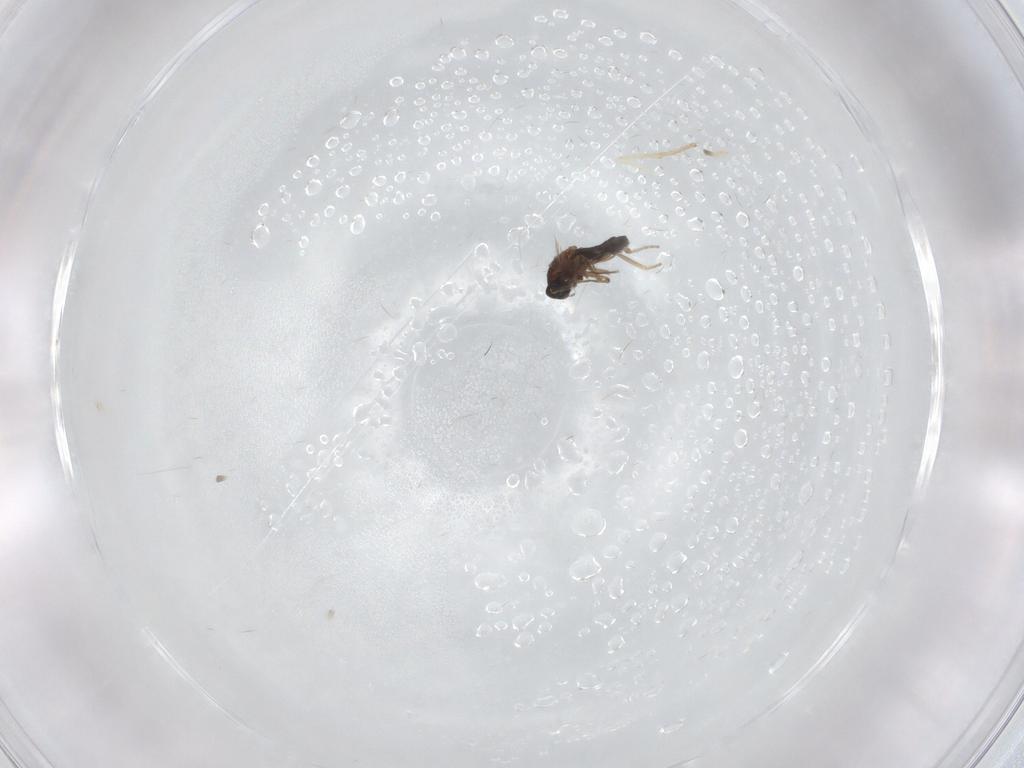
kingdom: Animalia
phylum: Arthropoda
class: Insecta
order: Diptera
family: Ceratopogonidae
